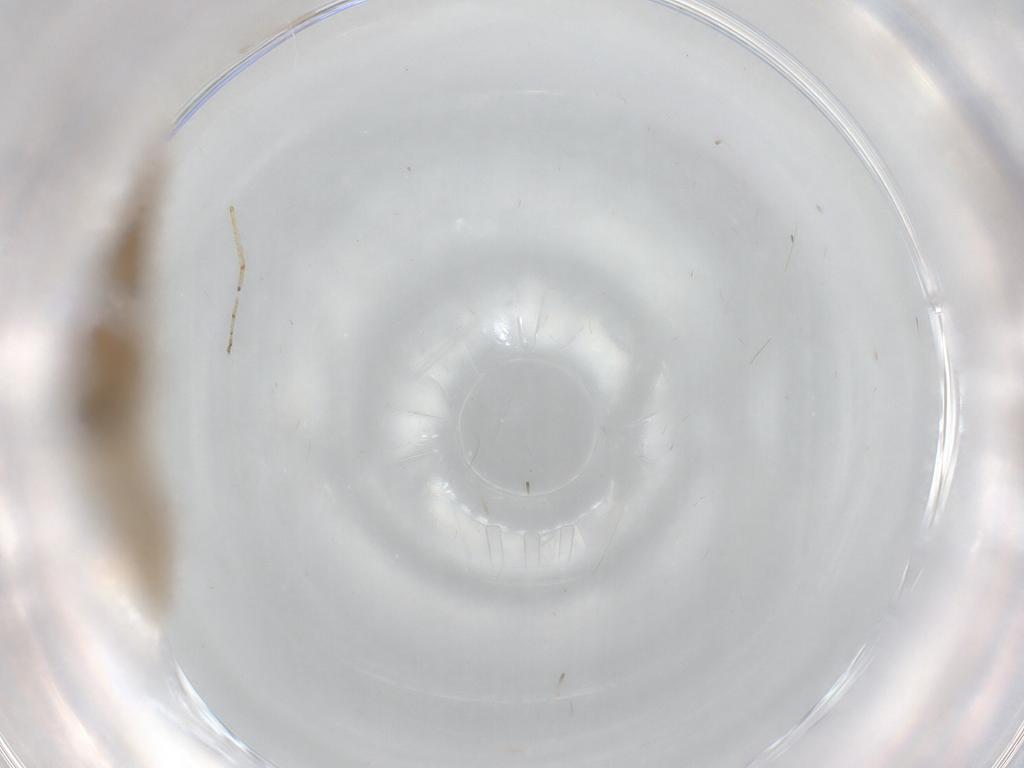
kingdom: Animalia
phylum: Arthropoda
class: Insecta
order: Diptera
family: Limoniidae
